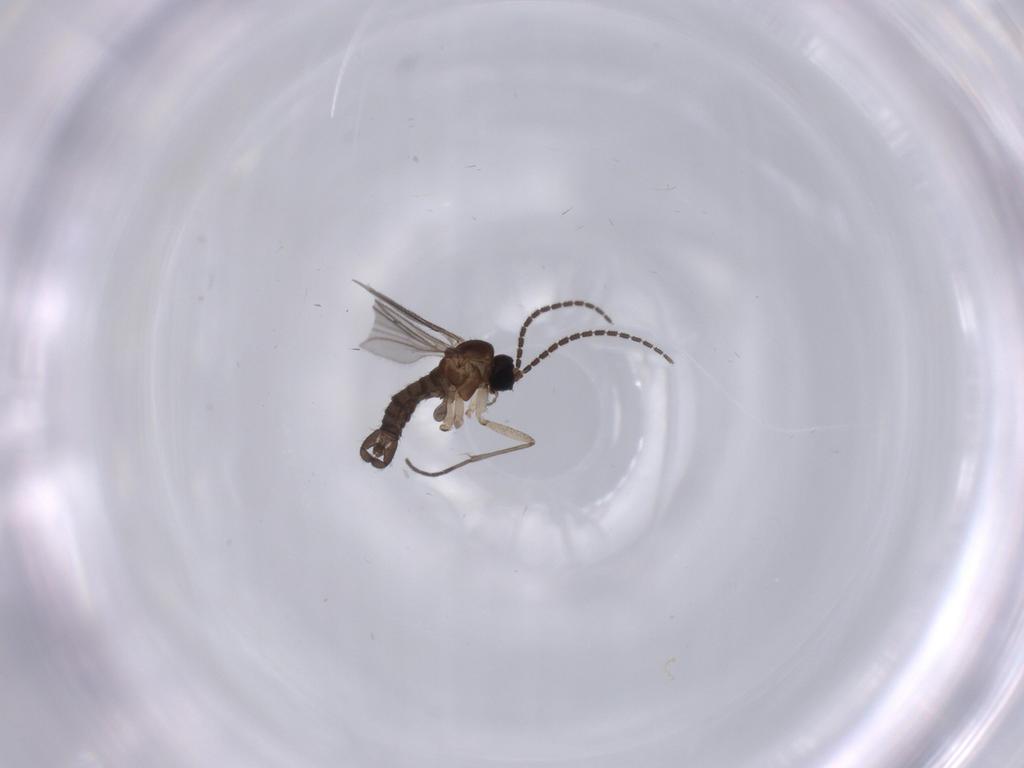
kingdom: Animalia
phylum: Arthropoda
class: Insecta
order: Diptera
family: Sciaridae
